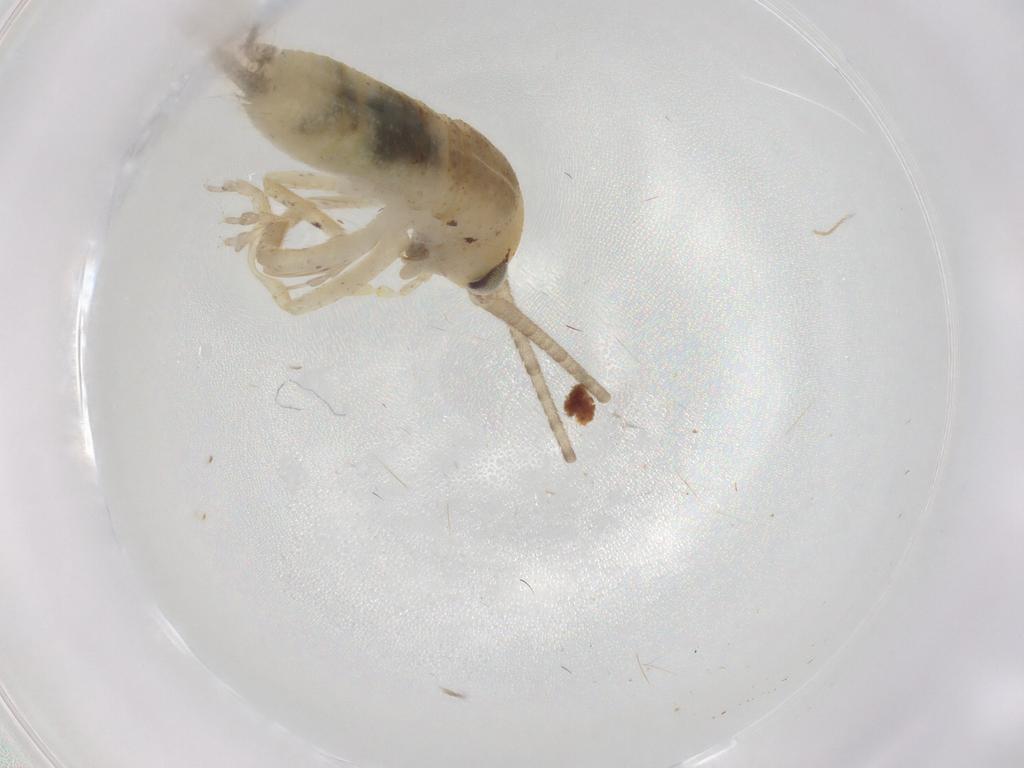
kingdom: Animalia
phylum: Arthropoda
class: Insecta
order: Orthoptera
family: Gryllidae
